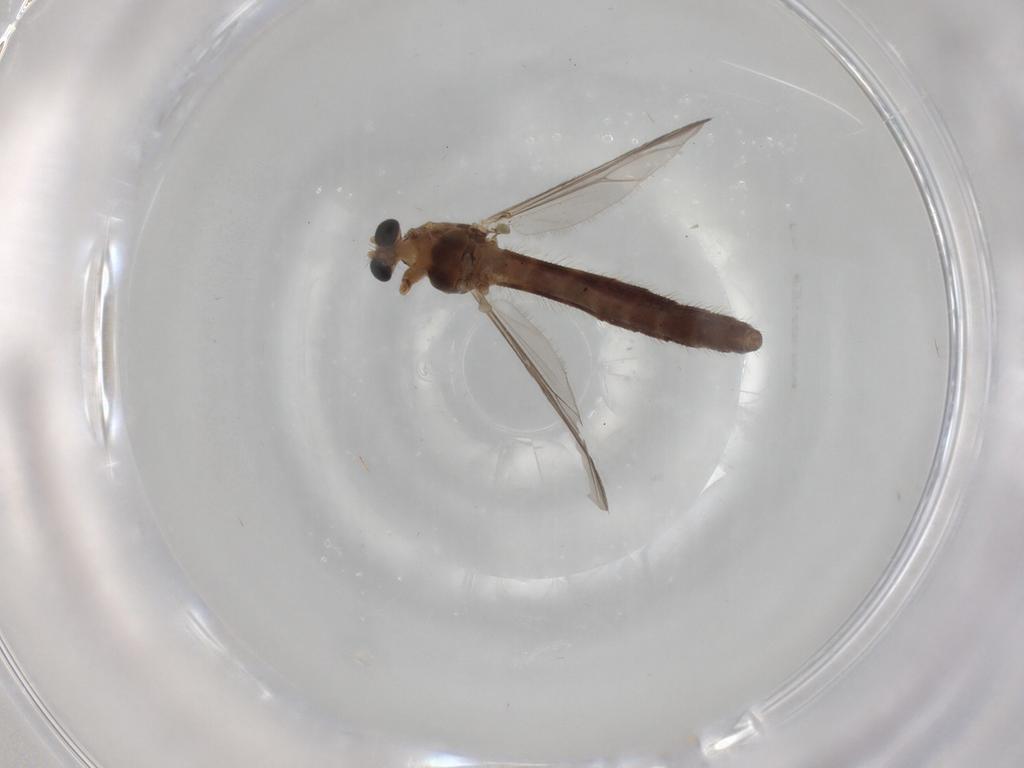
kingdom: Animalia
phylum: Arthropoda
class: Insecta
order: Diptera
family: Chironomidae
